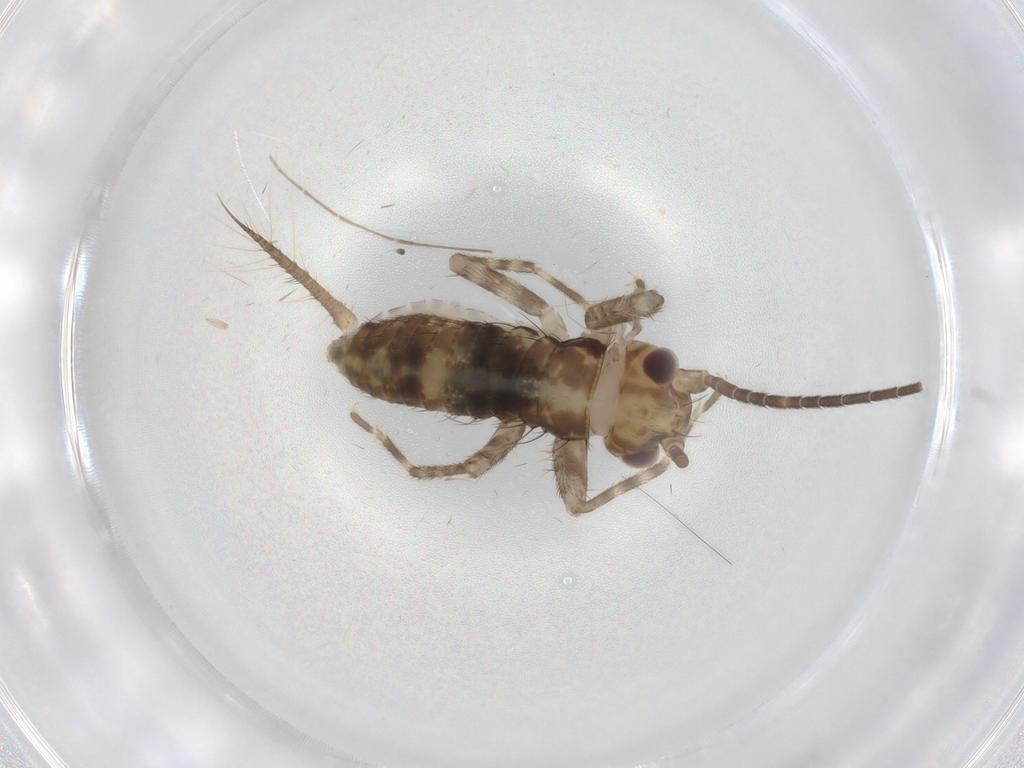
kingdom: Animalia
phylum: Arthropoda
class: Insecta
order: Orthoptera
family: Gryllidae
